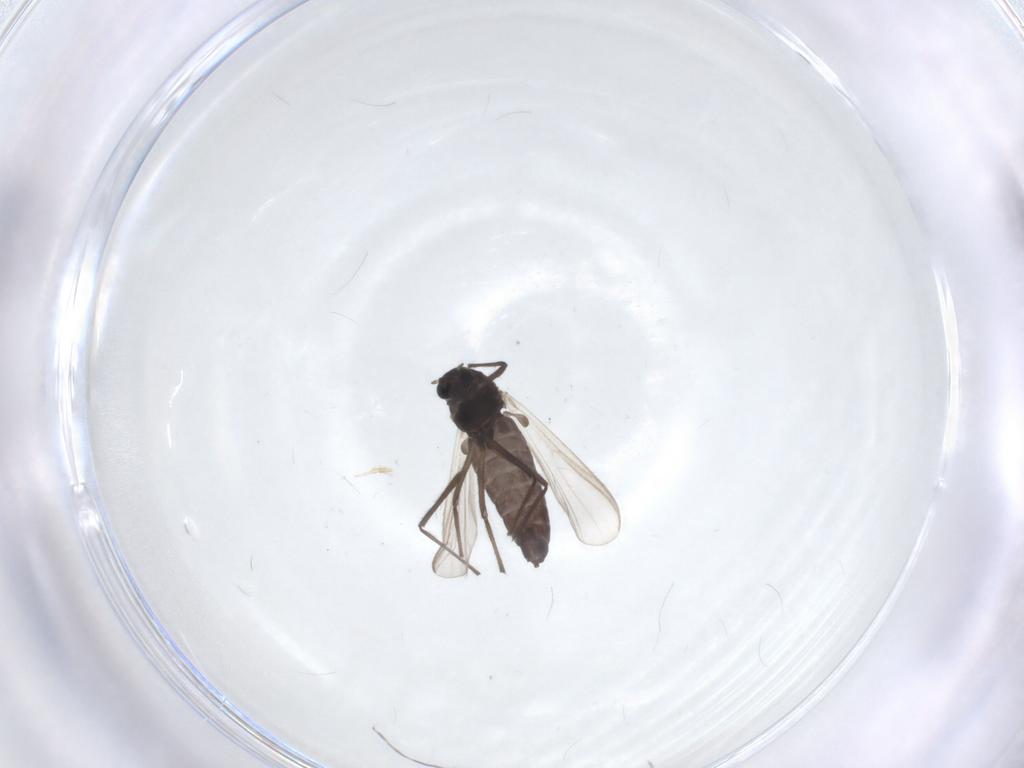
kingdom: Animalia
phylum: Arthropoda
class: Insecta
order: Diptera
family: Chironomidae
